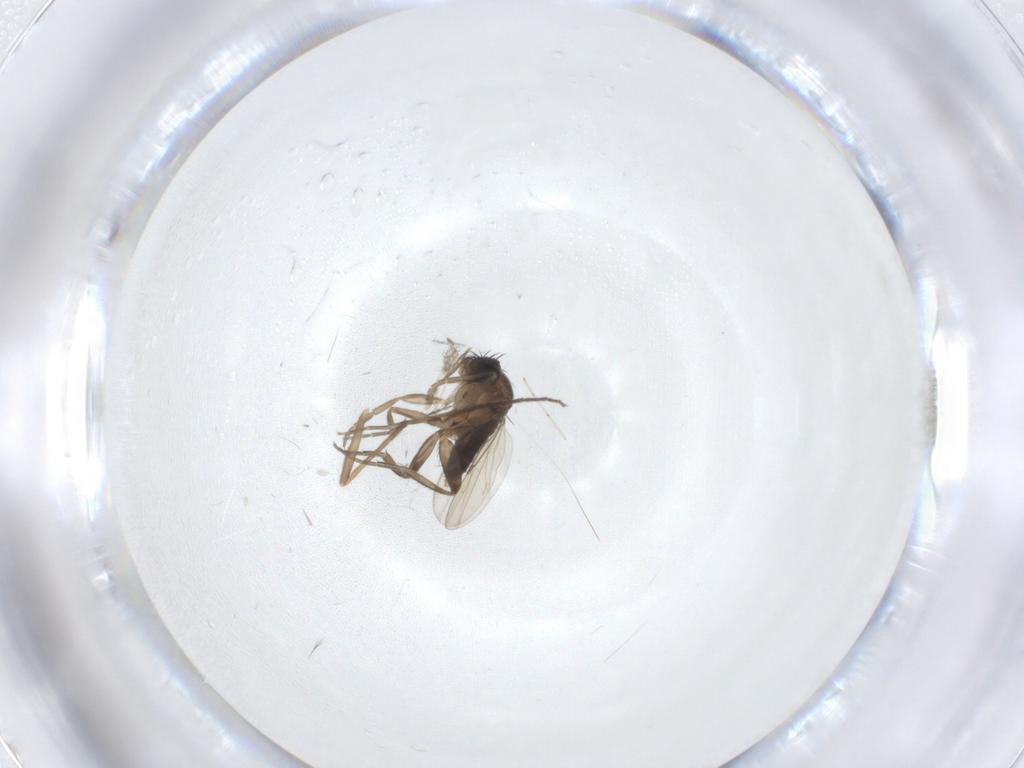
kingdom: Animalia
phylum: Arthropoda
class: Insecta
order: Diptera
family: Phoridae
